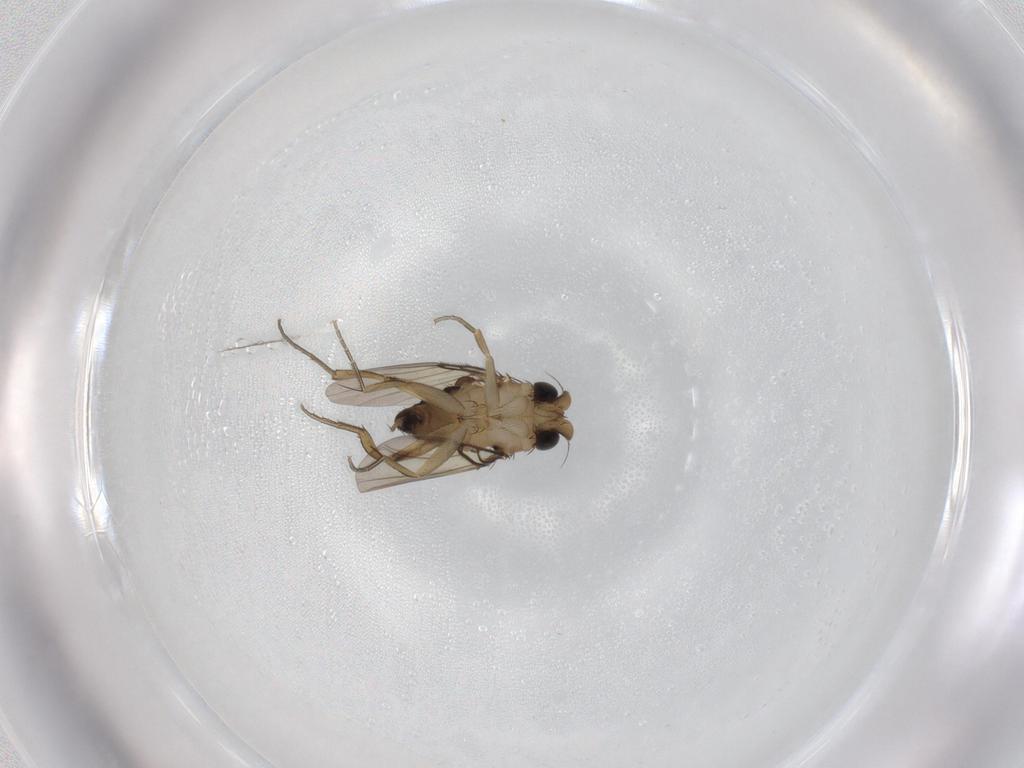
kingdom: Animalia
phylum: Arthropoda
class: Insecta
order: Diptera
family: Phoridae
